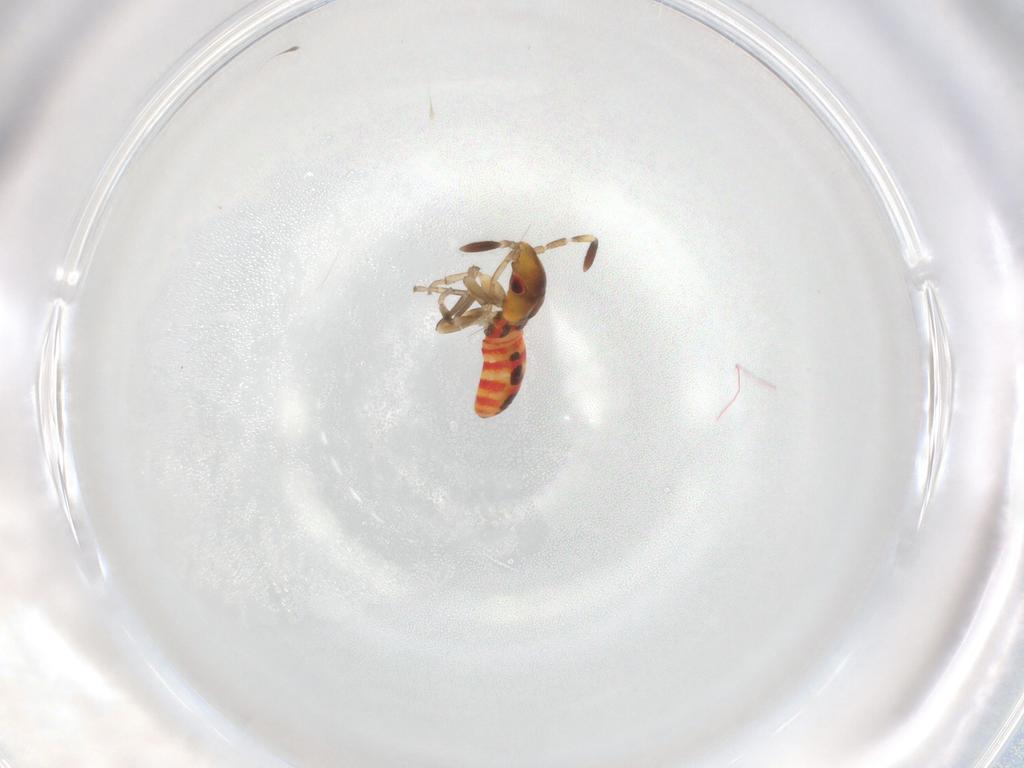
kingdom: Animalia
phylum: Arthropoda
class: Insecta
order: Hemiptera
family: Aphididae
